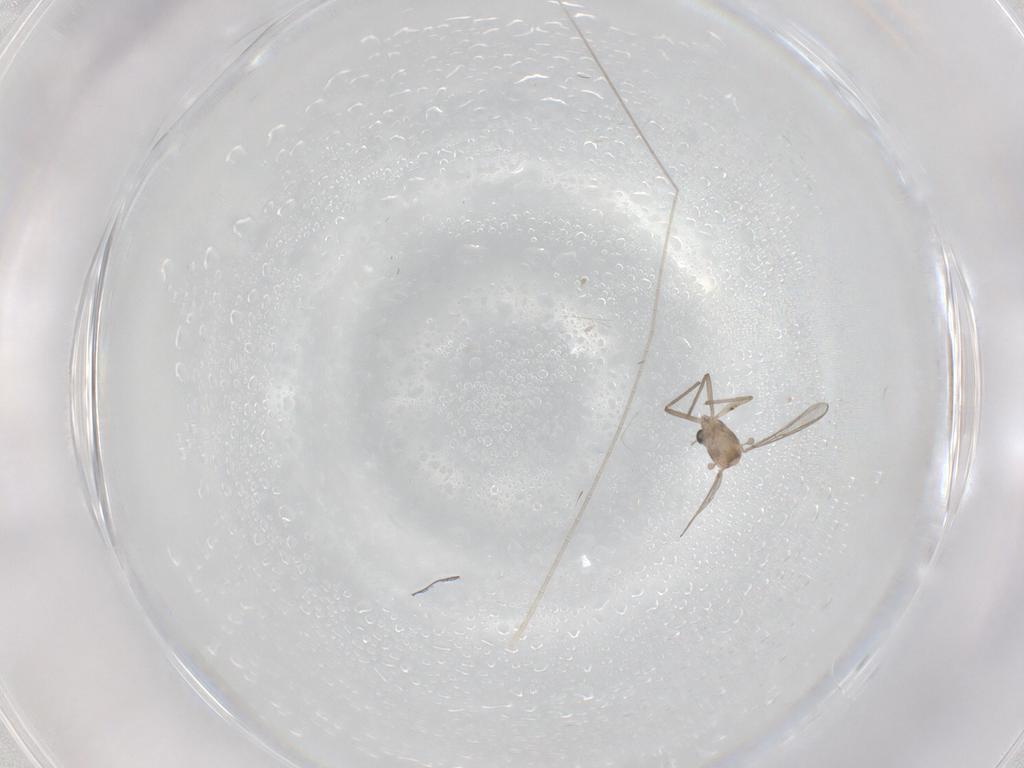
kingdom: Animalia
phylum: Arthropoda
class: Insecta
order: Diptera
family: Chironomidae
